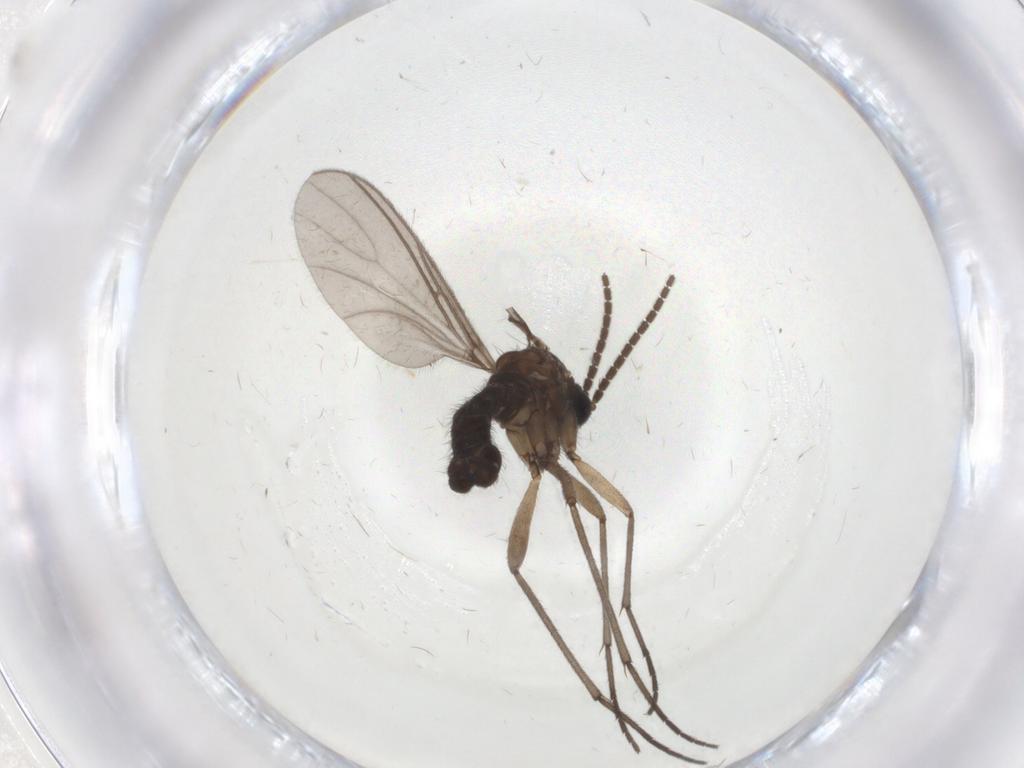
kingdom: Animalia
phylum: Arthropoda
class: Insecta
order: Diptera
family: Sciaridae
